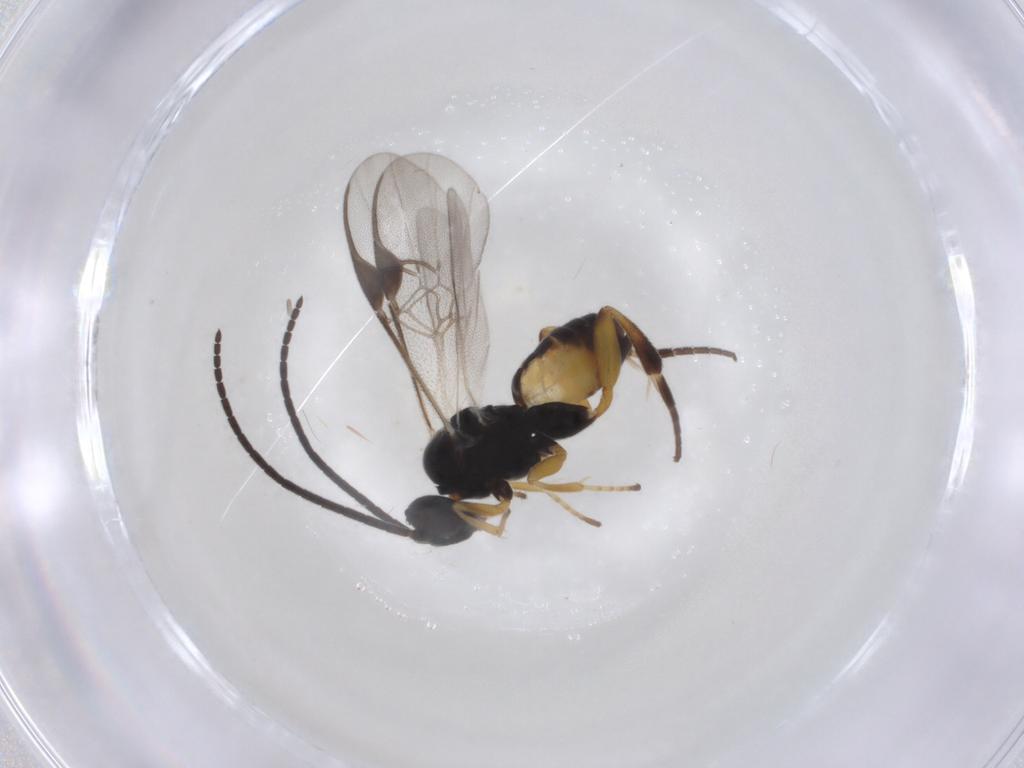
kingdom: Animalia
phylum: Arthropoda
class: Insecta
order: Hymenoptera
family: Braconidae
